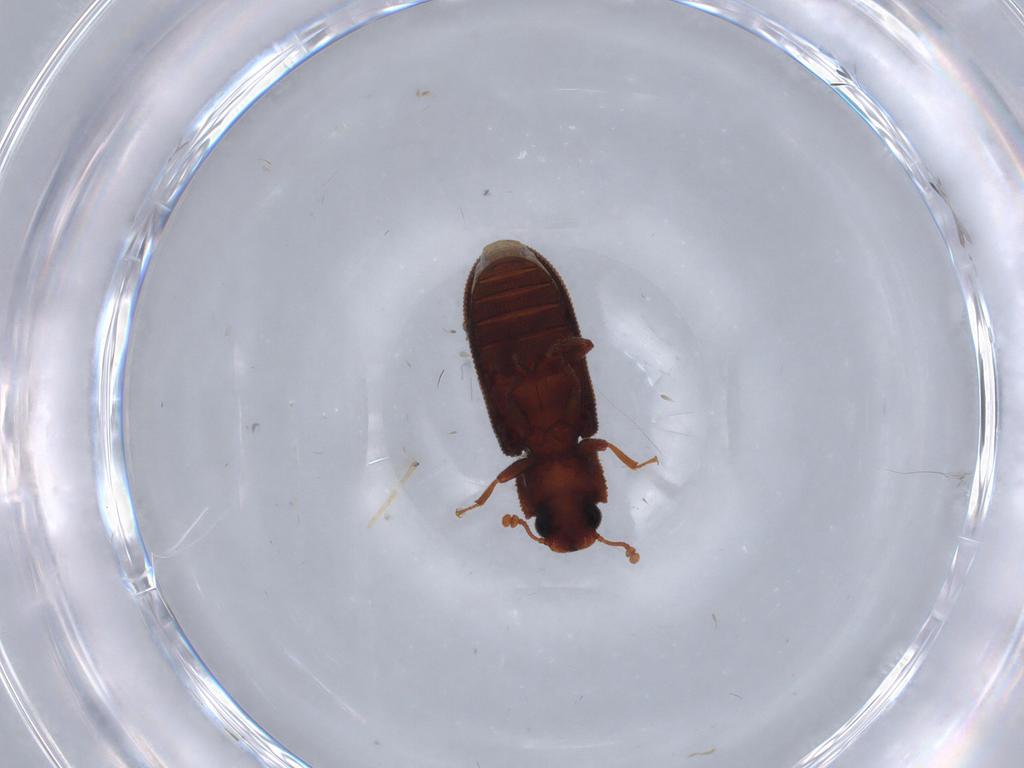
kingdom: Animalia
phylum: Arthropoda
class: Insecta
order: Coleoptera
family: Zopheridae
